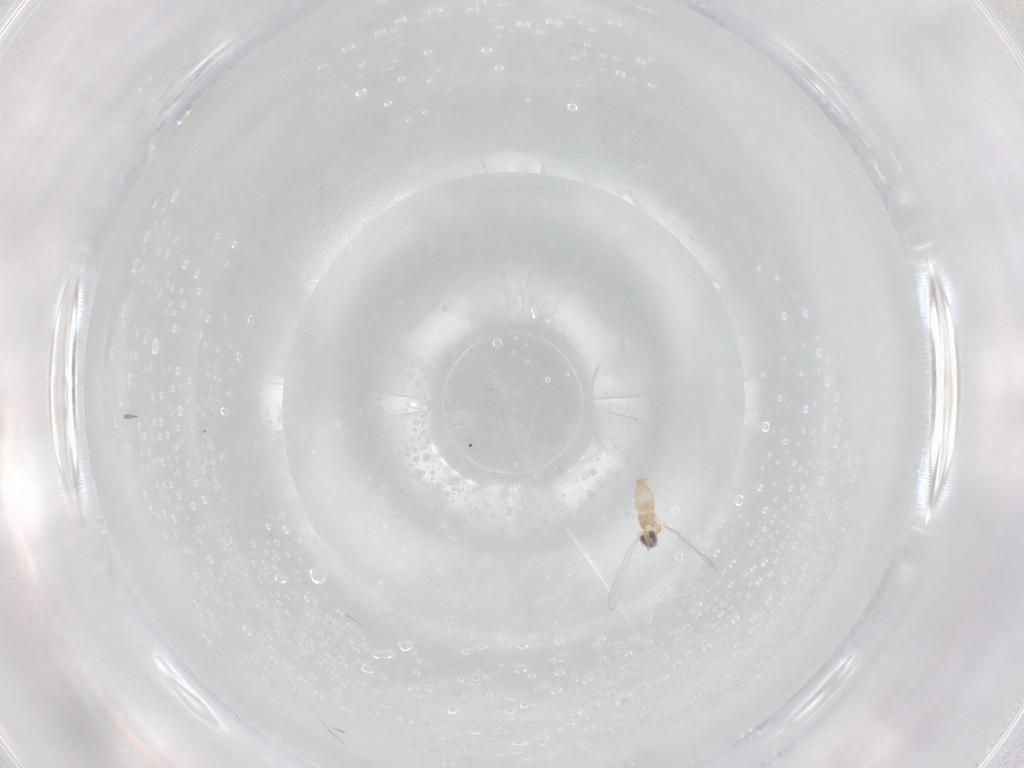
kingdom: Animalia
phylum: Arthropoda
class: Insecta
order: Diptera
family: Cecidomyiidae
